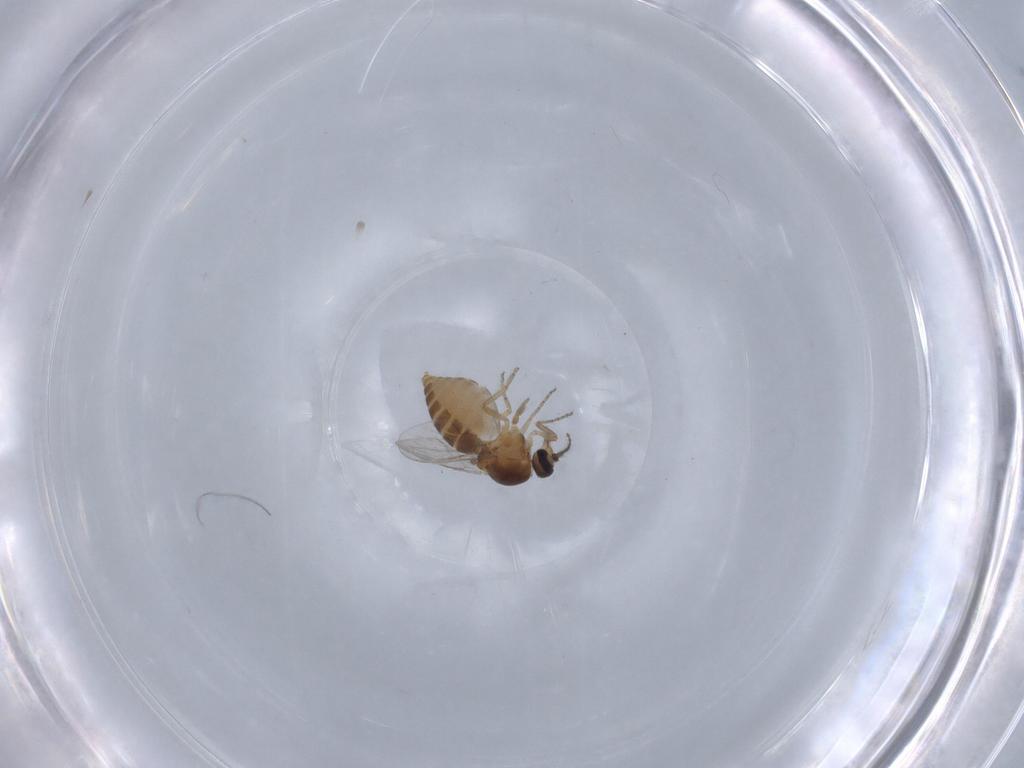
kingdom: Animalia
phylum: Arthropoda
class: Insecta
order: Diptera
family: Ceratopogonidae
